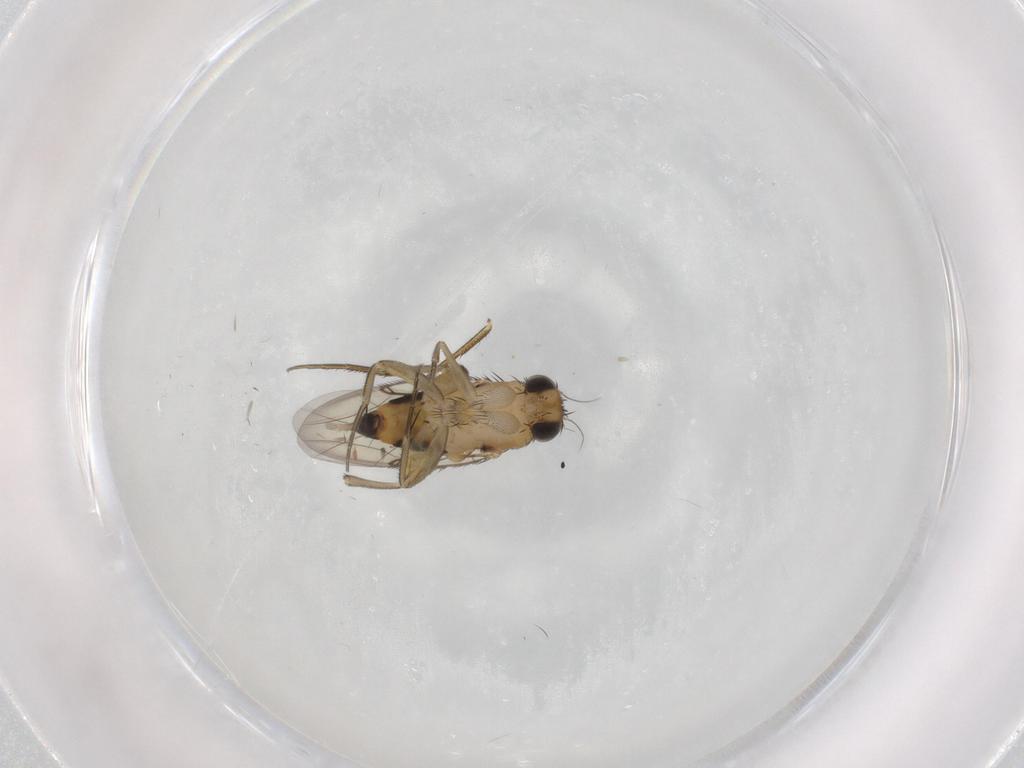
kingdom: Animalia
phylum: Arthropoda
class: Insecta
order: Diptera
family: Phoridae
